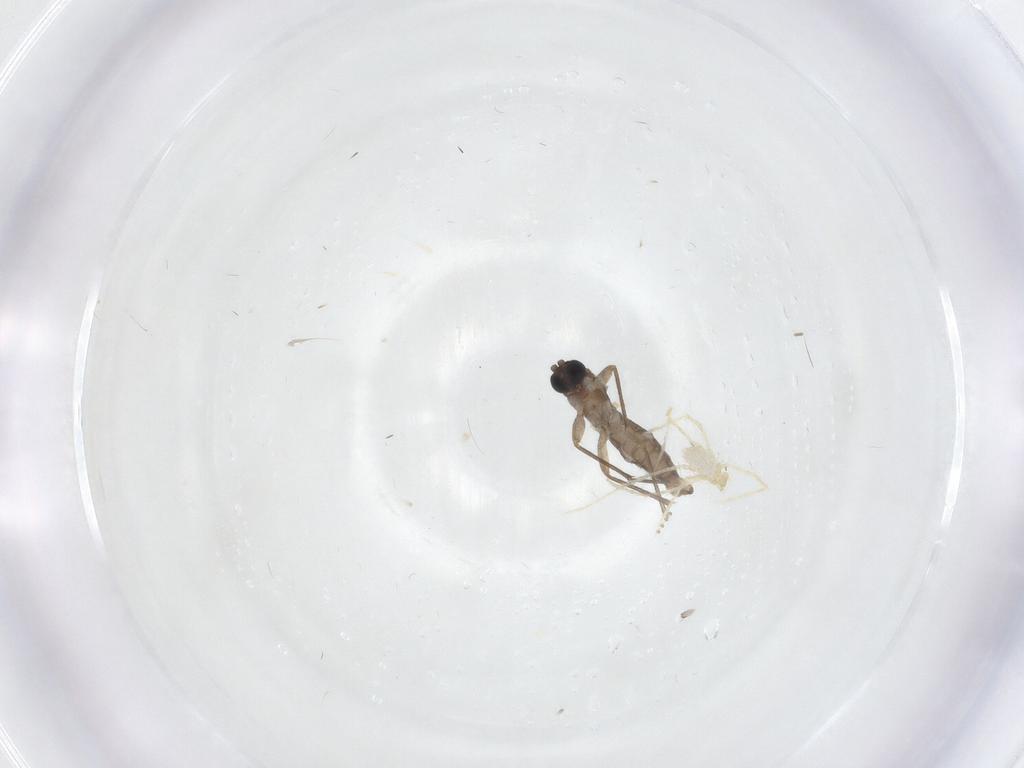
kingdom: Animalia
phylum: Arthropoda
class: Insecta
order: Diptera
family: Sciaridae
